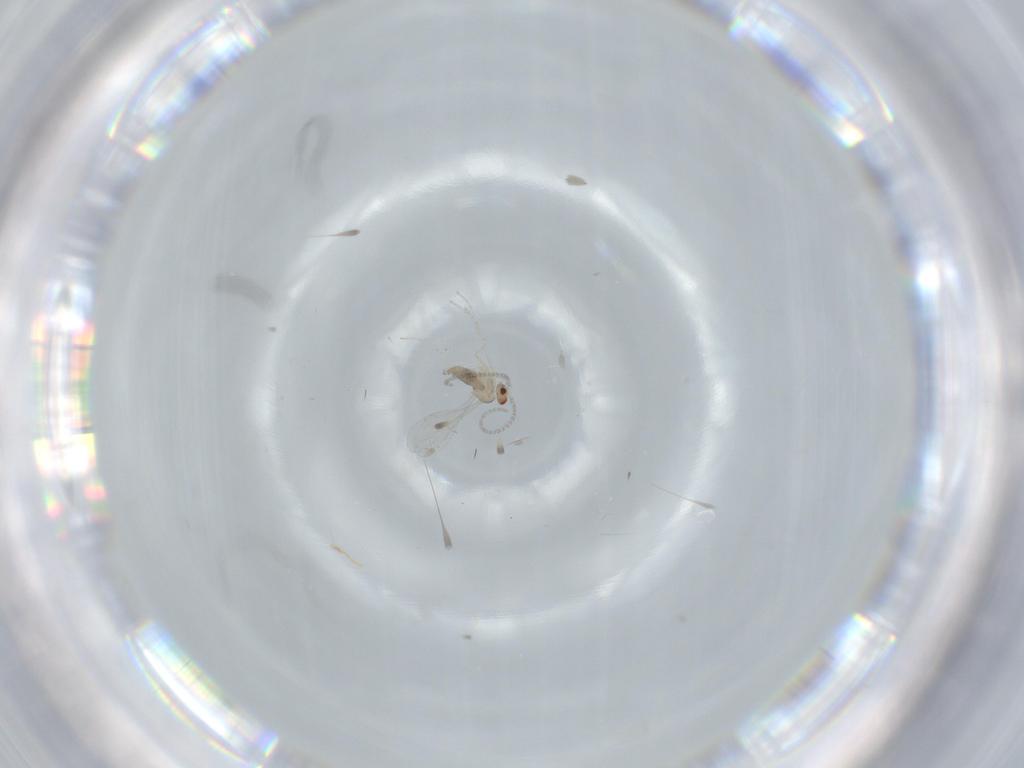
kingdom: Animalia
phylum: Arthropoda
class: Insecta
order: Diptera
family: Cecidomyiidae
